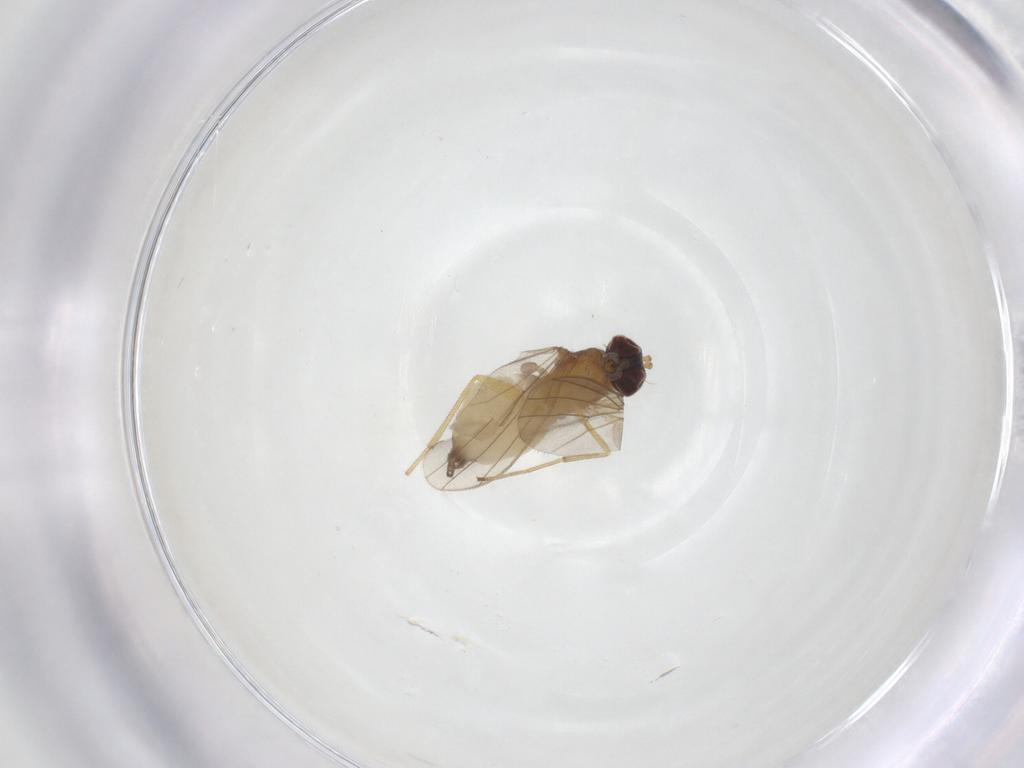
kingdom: Animalia
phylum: Arthropoda
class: Insecta
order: Diptera
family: Dolichopodidae
